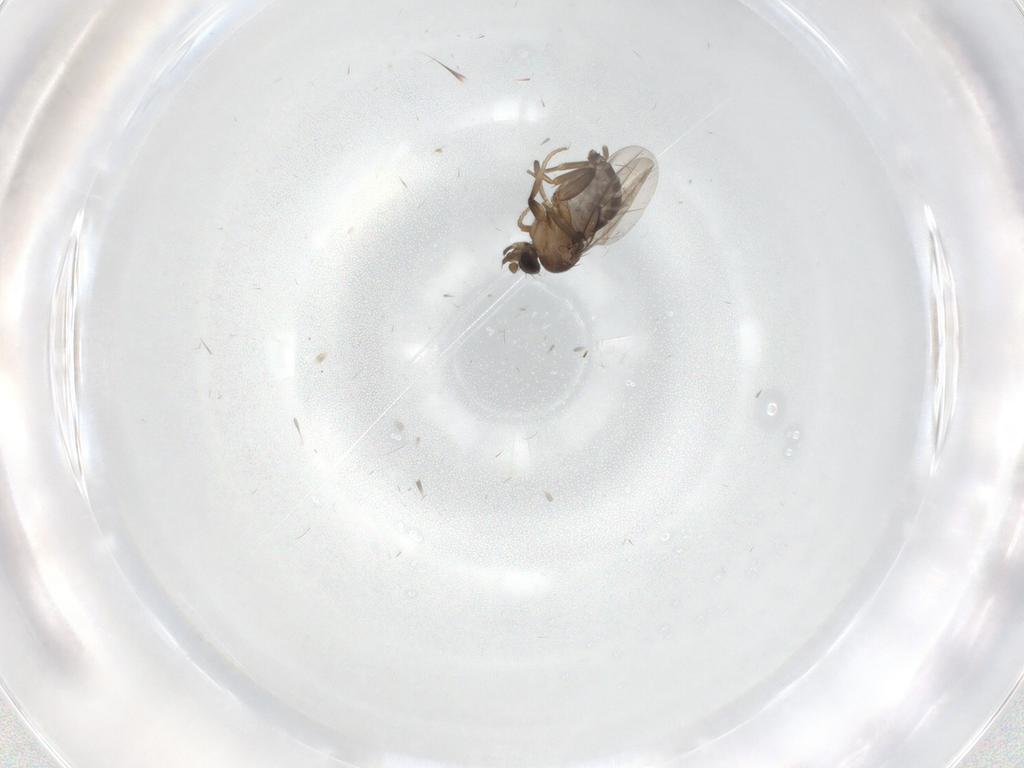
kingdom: Animalia
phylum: Arthropoda
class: Insecta
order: Diptera
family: Phoridae
